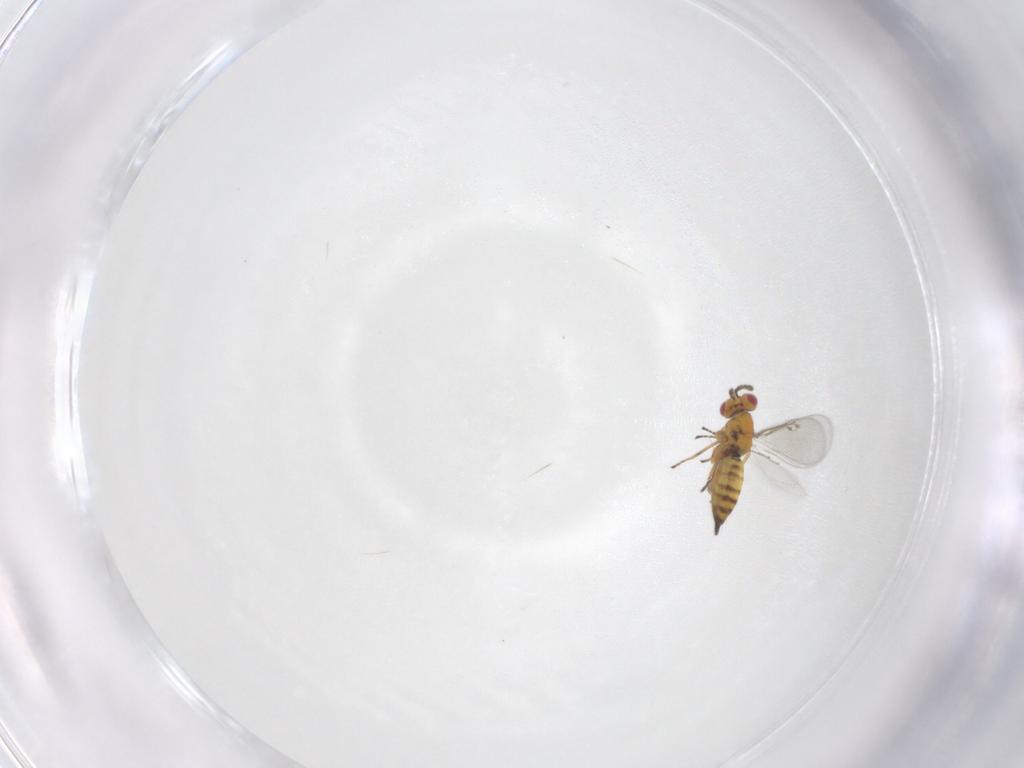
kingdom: Animalia
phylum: Arthropoda
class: Insecta
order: Hymenoptera
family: Eulophidae
